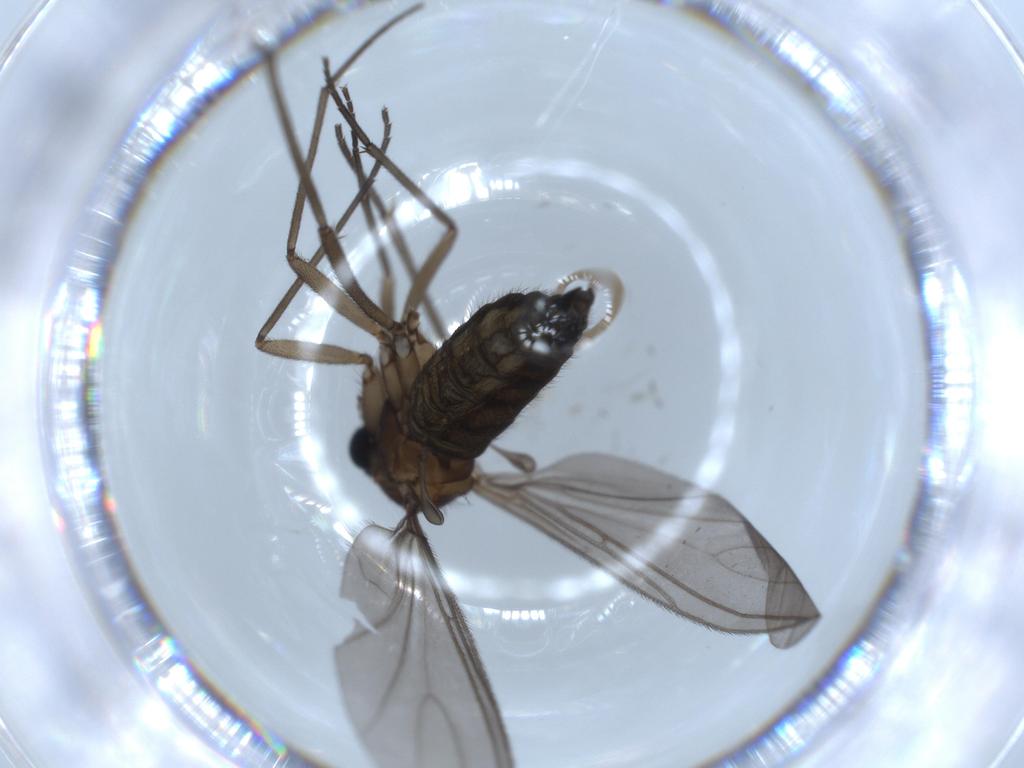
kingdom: Animalia
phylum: Arthropoda
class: Insecta
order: Diptera
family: Sciaridae
